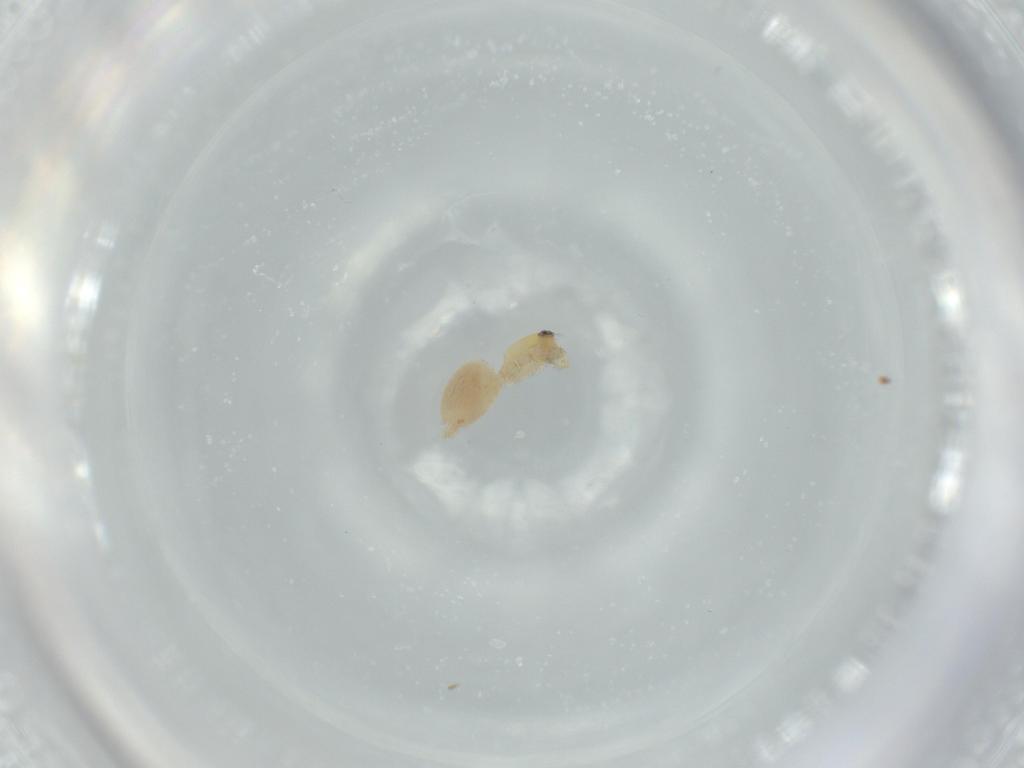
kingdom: Animalia
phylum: Arthropoda
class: Arachnida
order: Araneae
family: Oonopidae
